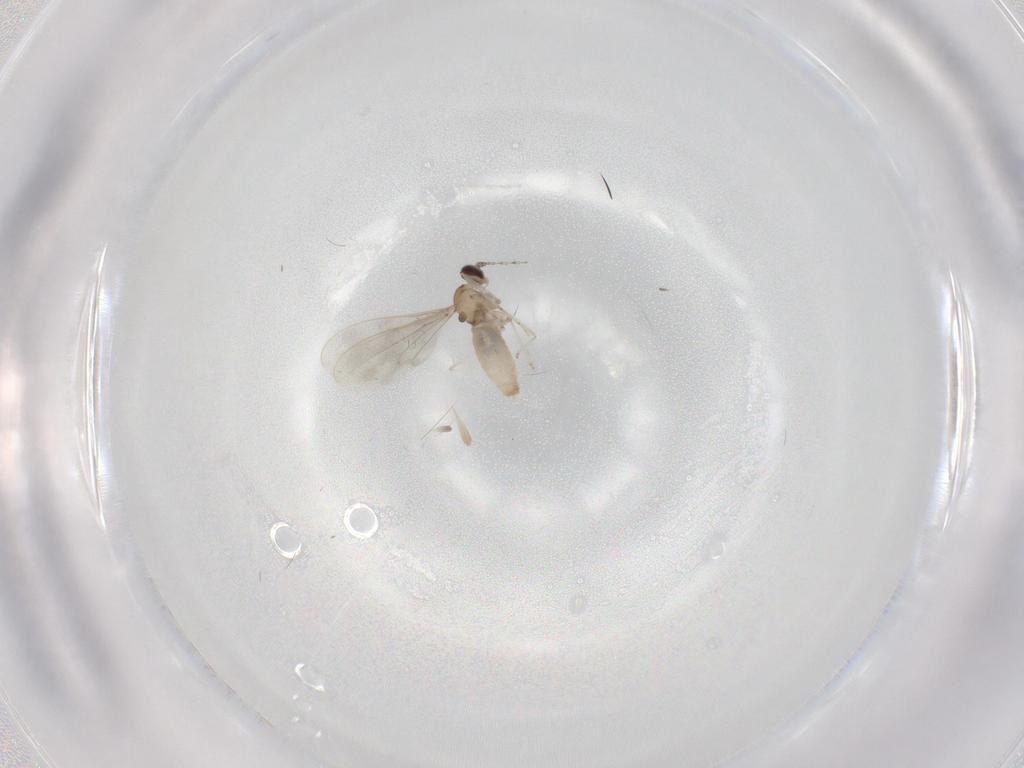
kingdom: Animalia
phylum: Arthropoda
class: Insecta
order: Diptera
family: Cecidomyiidae
